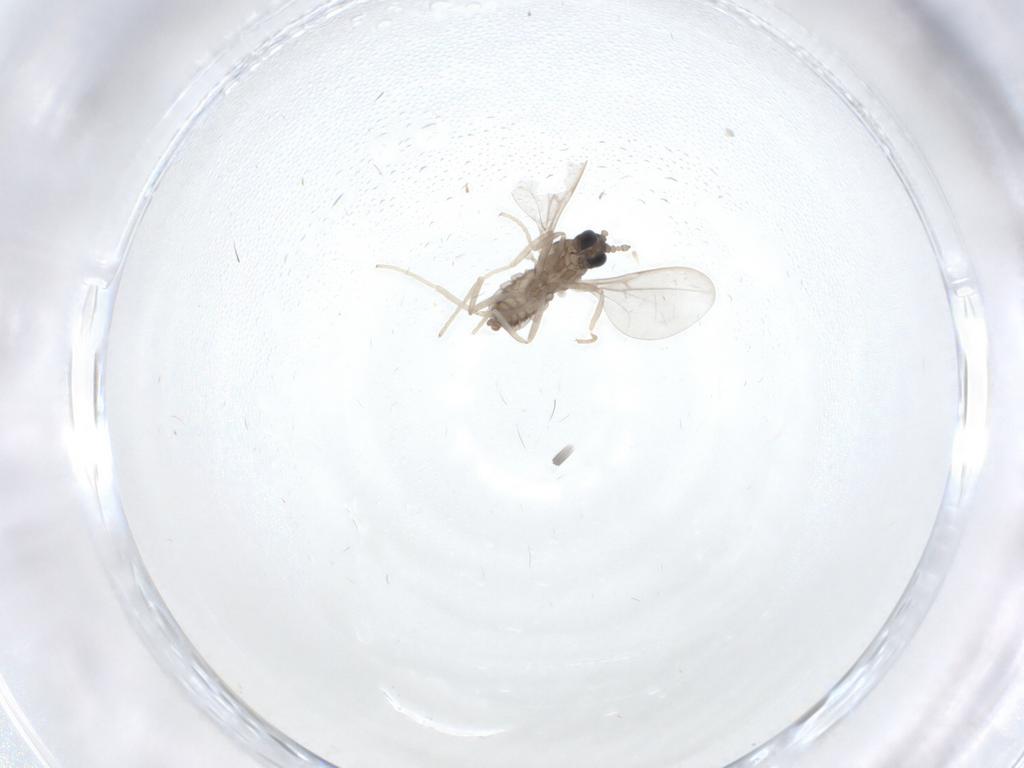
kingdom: Animalia
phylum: Arthropoda
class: Insecta
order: Diptera
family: Cecidomyiidae
